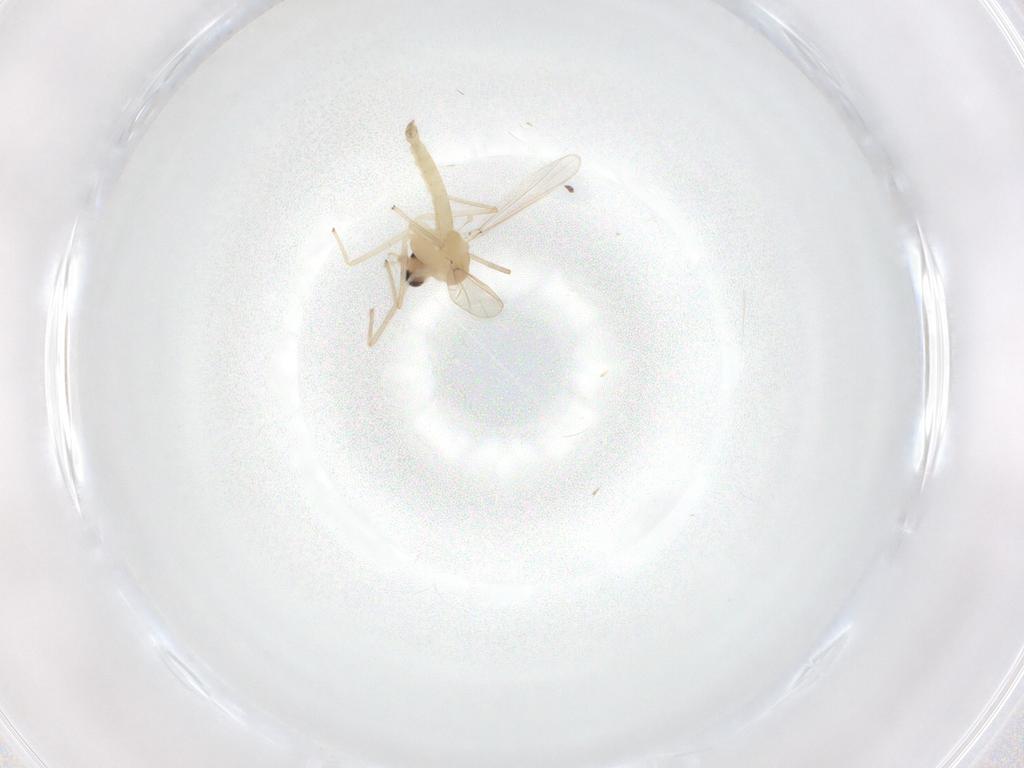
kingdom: Animalia
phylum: Arthropoda
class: Insecta
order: Diptera
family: Chironomidae
